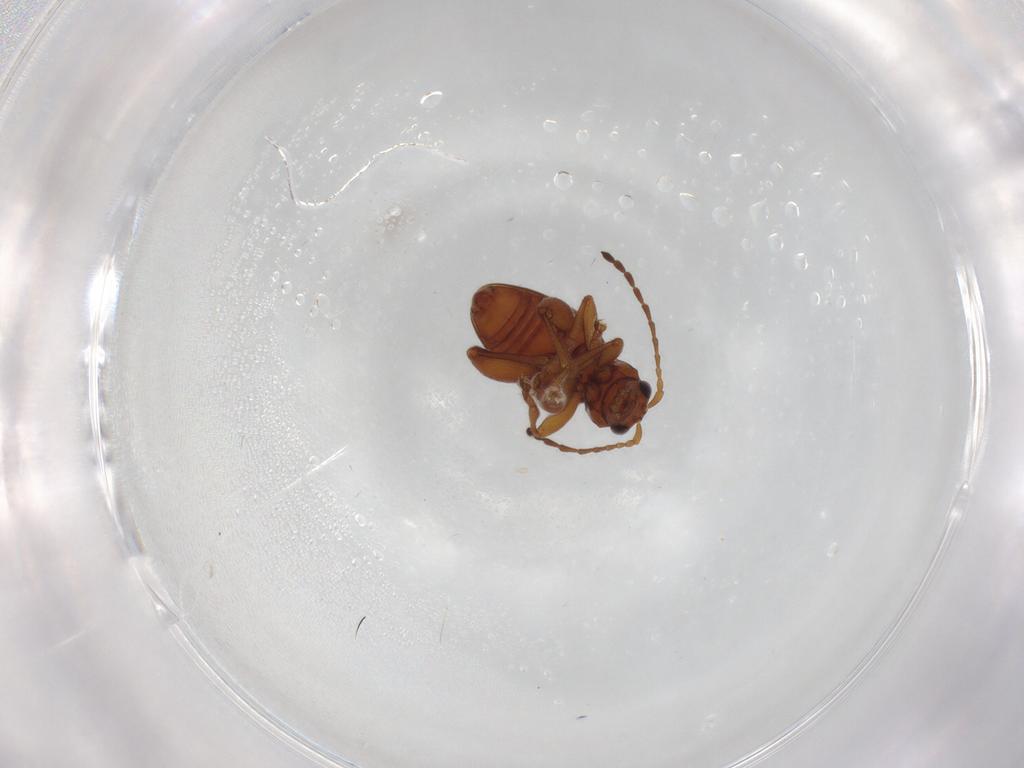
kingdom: Animalia
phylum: Arthropoda
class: Insecta
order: Coleoptera
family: Chrysomelidae
